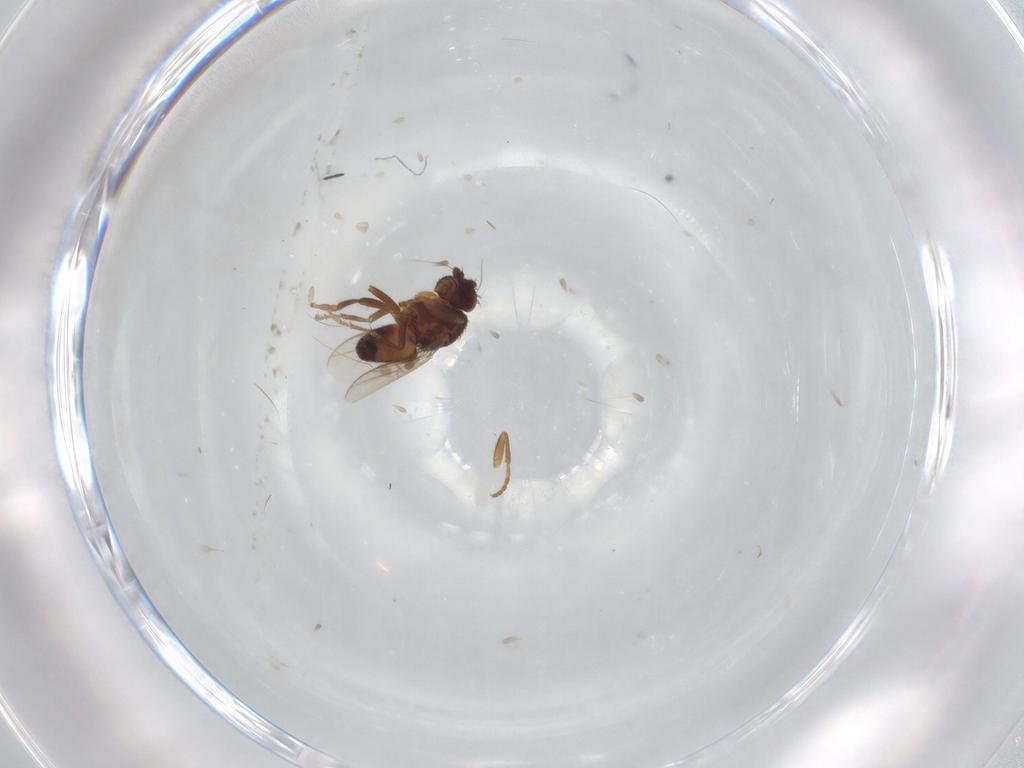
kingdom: Animalia
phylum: Arthropoda
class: Insecta
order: Diptera
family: Sphaeroceridae
